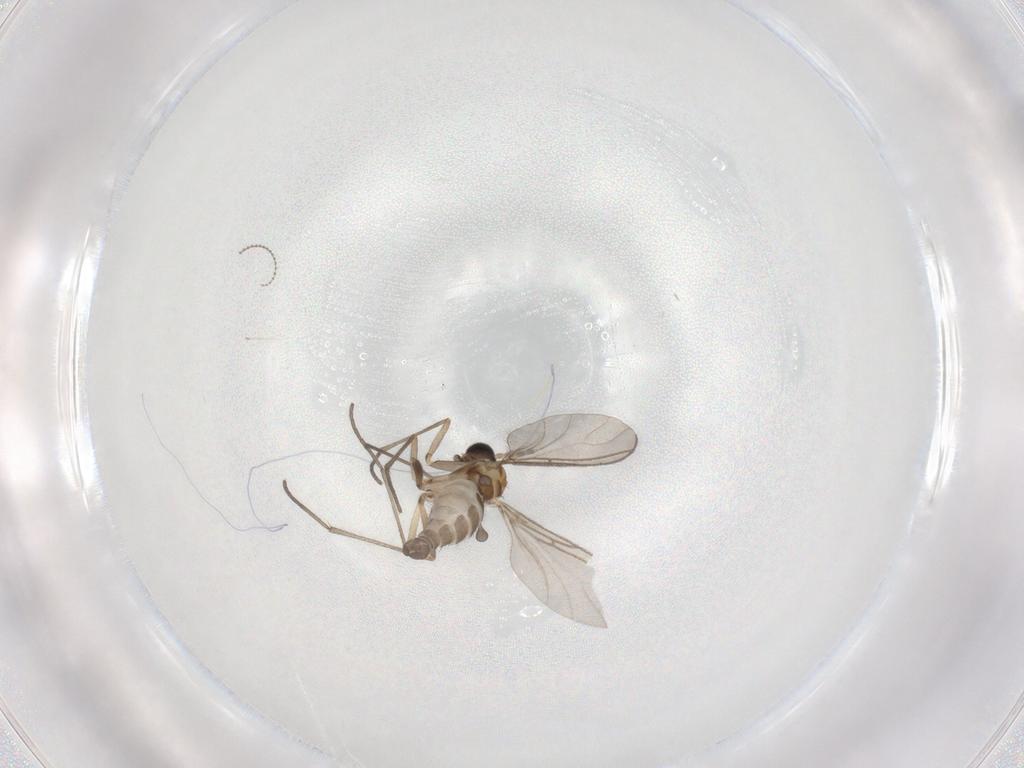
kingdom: Animalia
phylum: Arthropoda
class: Insecta
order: Diptera
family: Sciaridae
